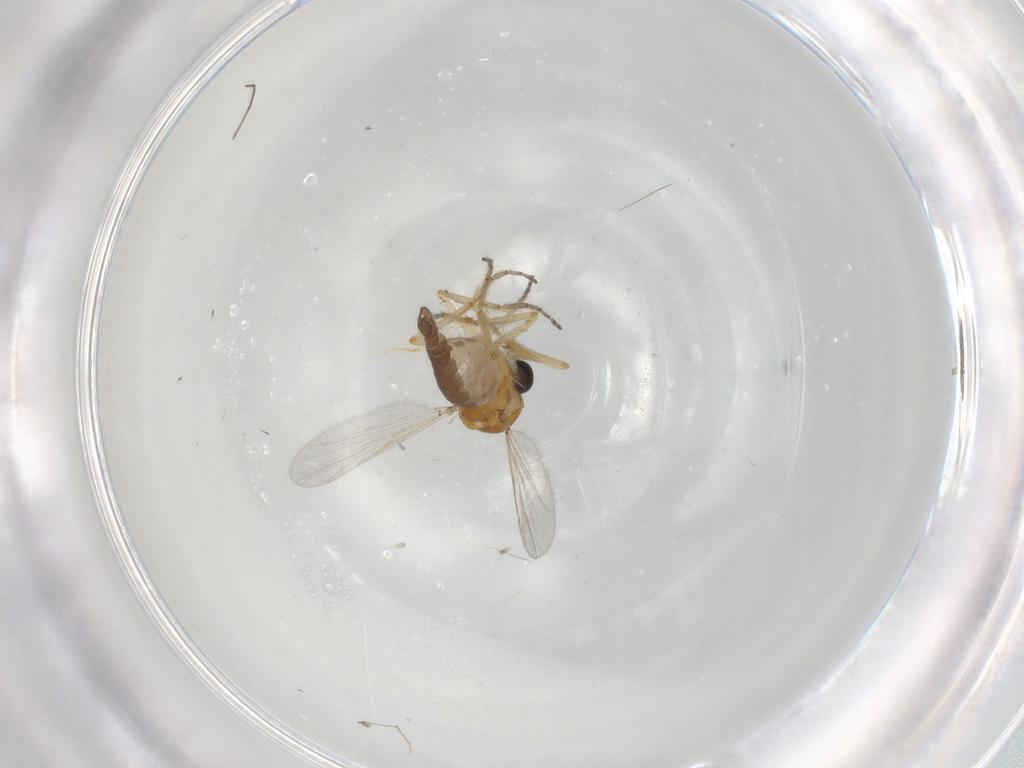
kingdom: Animalia
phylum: Arthropoda
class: Insecta
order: Diptera
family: Ceratopogonidae
